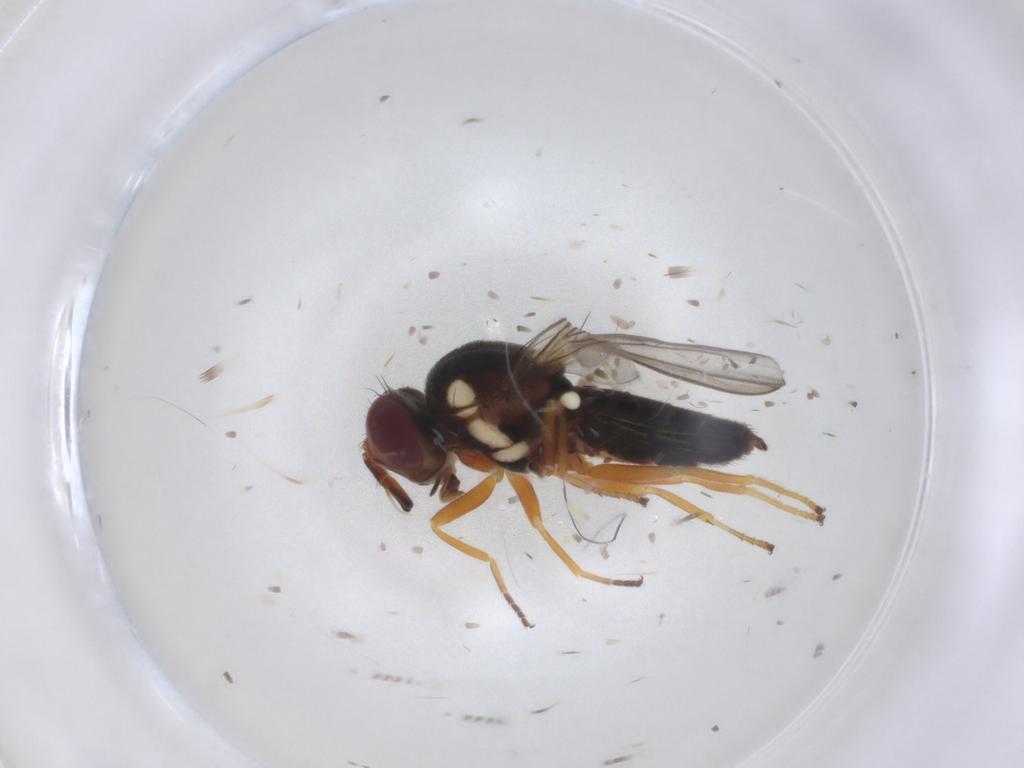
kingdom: Animalia
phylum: Arthropoda
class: Insecta
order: Diptera
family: Chloropidae
